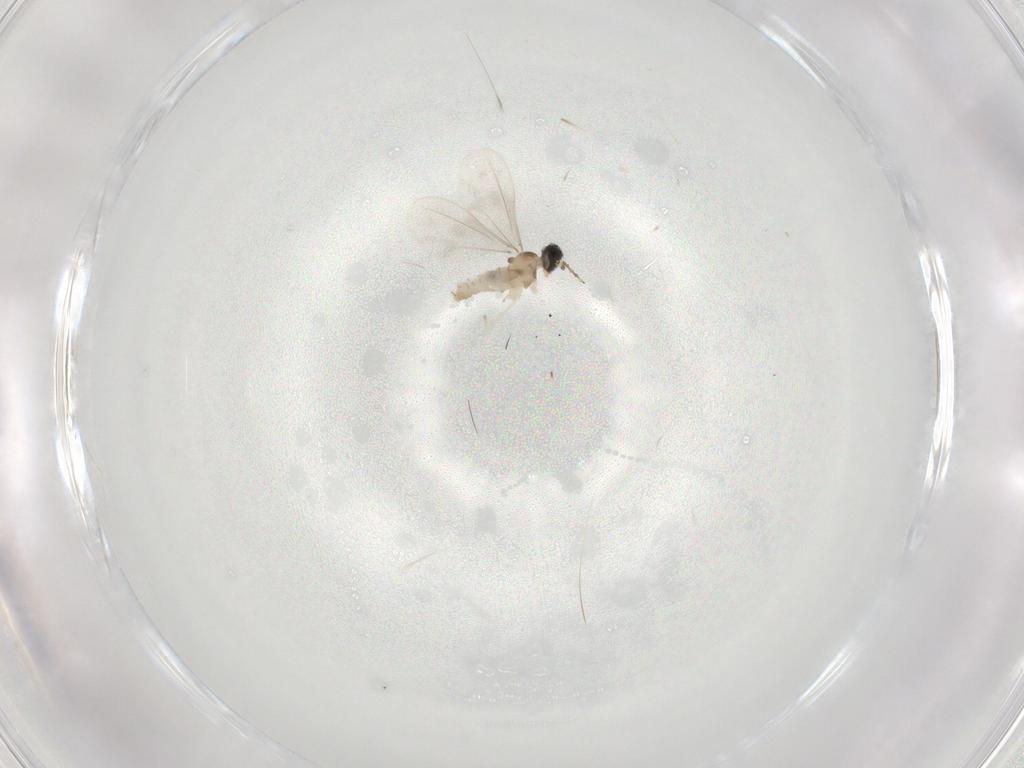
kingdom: Animalia
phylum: Arthropoda
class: Insecta
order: Diptera
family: Cecidomyiidae
